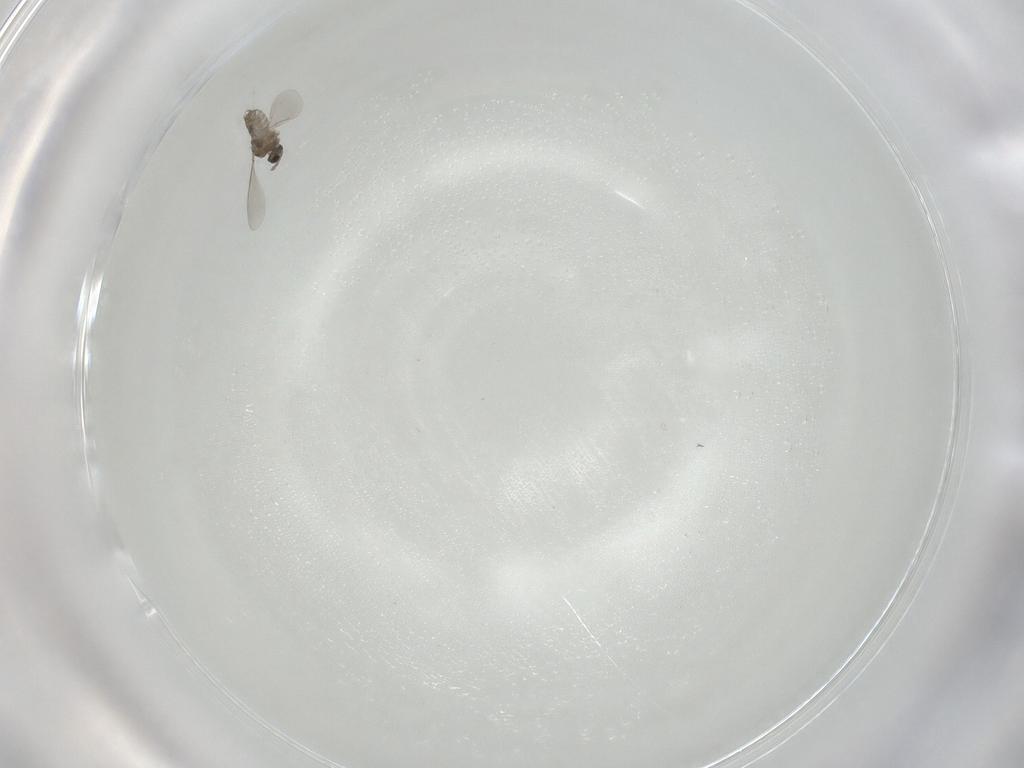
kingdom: Animalia
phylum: Arthropoda
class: Insecta
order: Diptera
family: Cecidomyiidae
